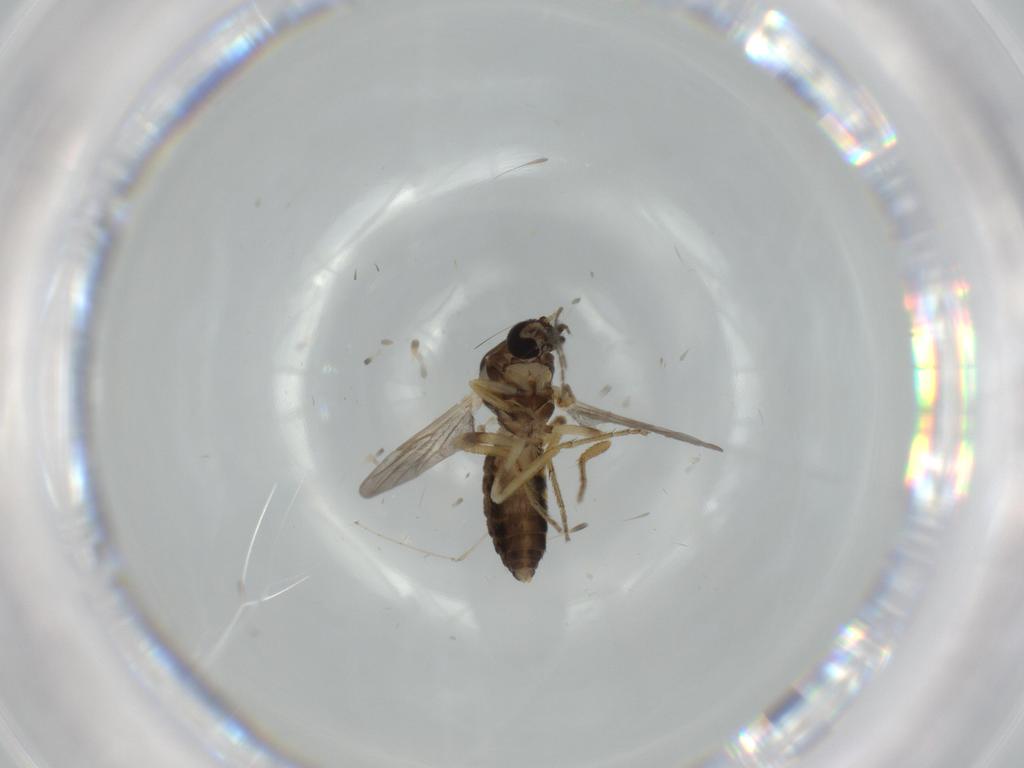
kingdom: Animalia
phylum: Arthropoda
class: Insecta
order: Diptera
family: Ceratopogonidae
